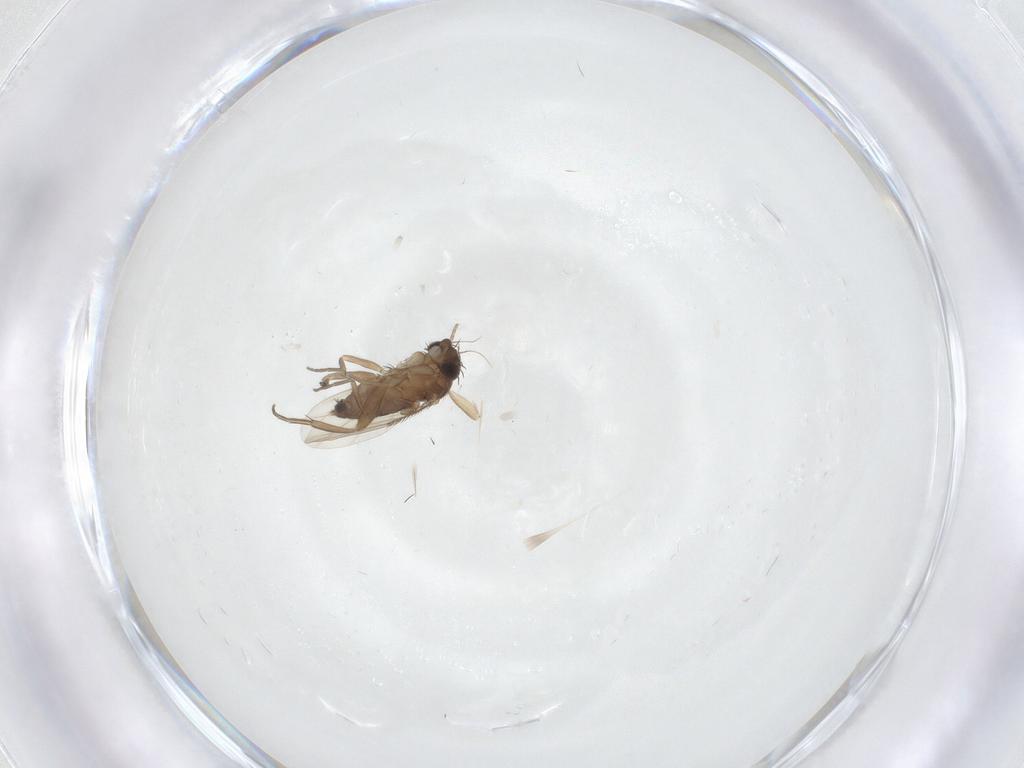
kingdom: Animalia
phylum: Arthropoda
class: Insecta
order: Diptera
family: Phoridae
